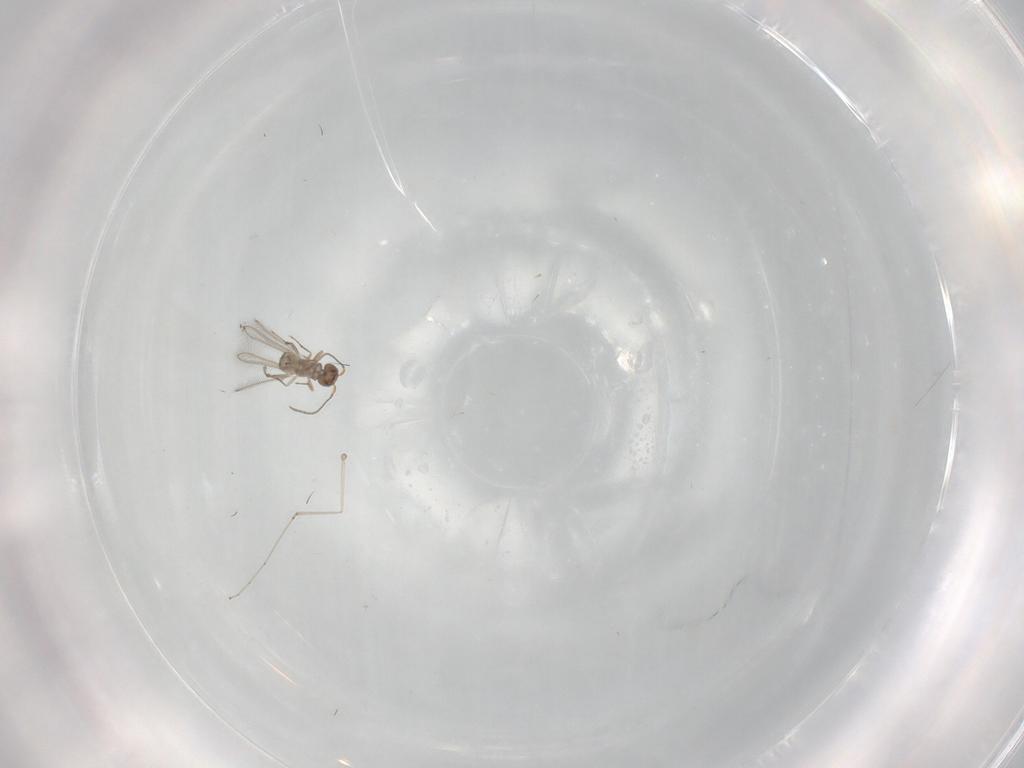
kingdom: Animalia
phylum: Arthropoda
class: Insecta
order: Hymenoptera
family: Mymaridae
